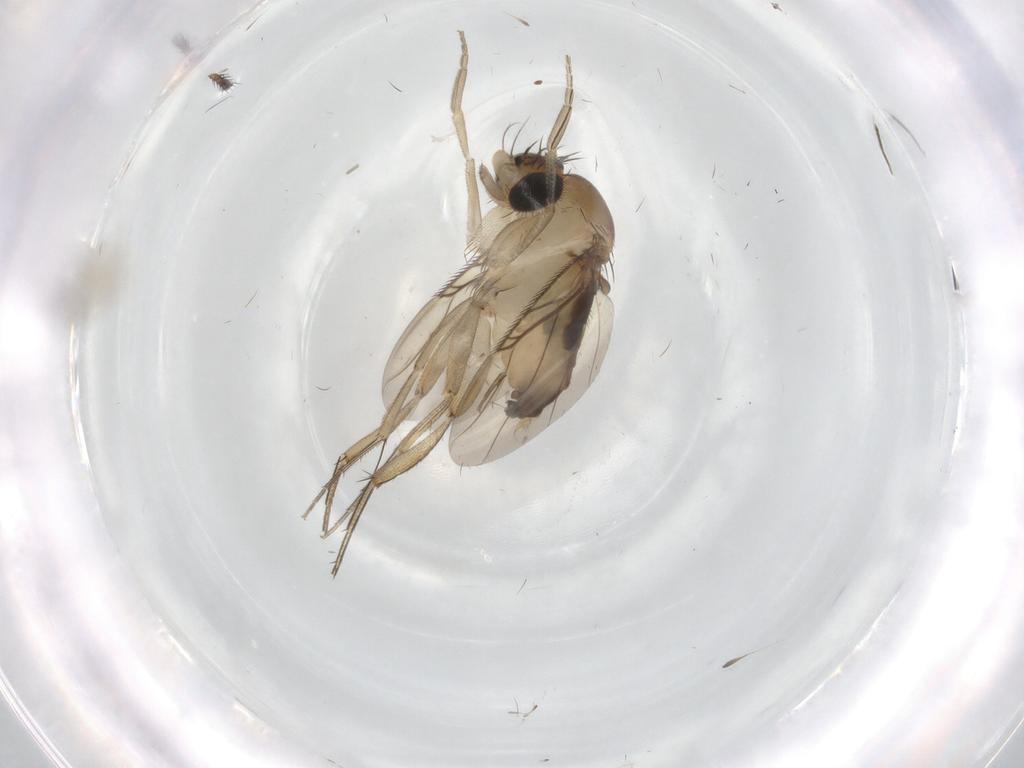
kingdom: Animalia
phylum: Arthropoda
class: Insecta
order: Diptera
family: Phoridae
